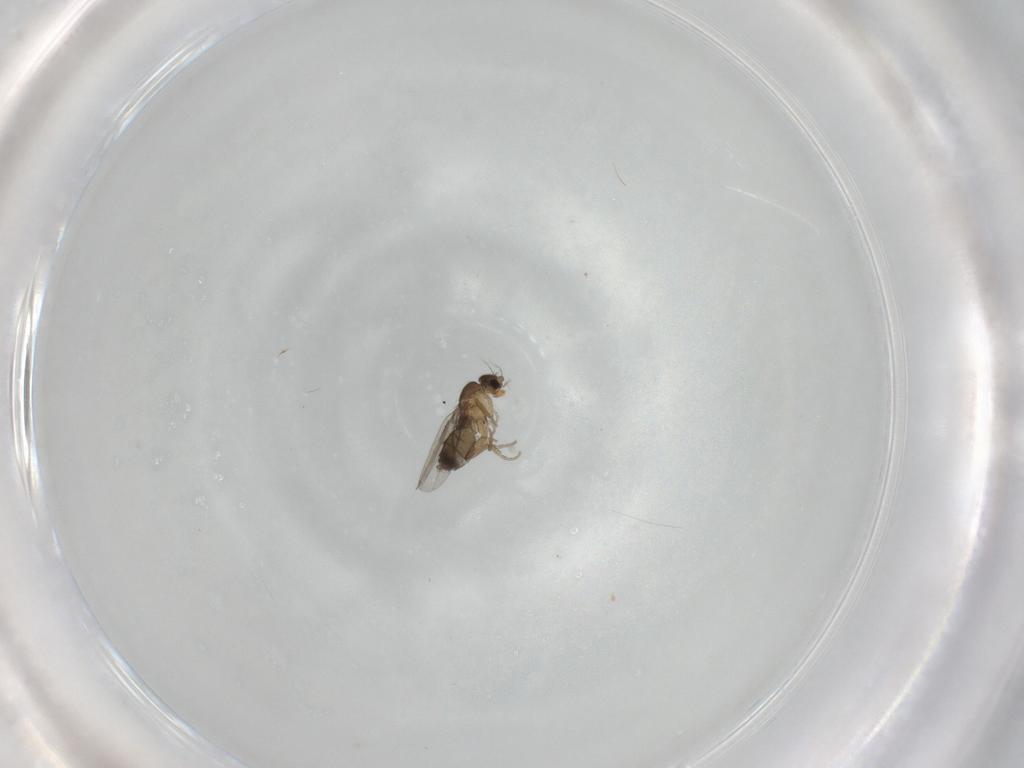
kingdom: Animalia
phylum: Arthropoda
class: Insecta
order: Diptera
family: Phoridae
